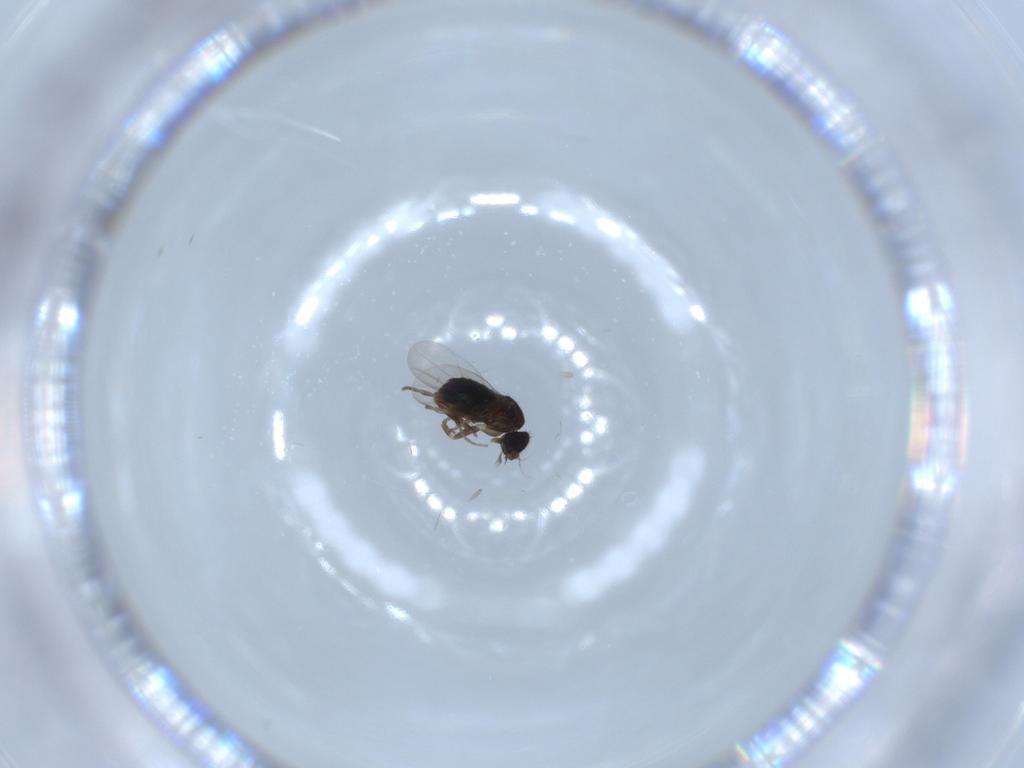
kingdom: Animalia
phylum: Arthropoda
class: Insecta
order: Diptera
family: Phoridae
